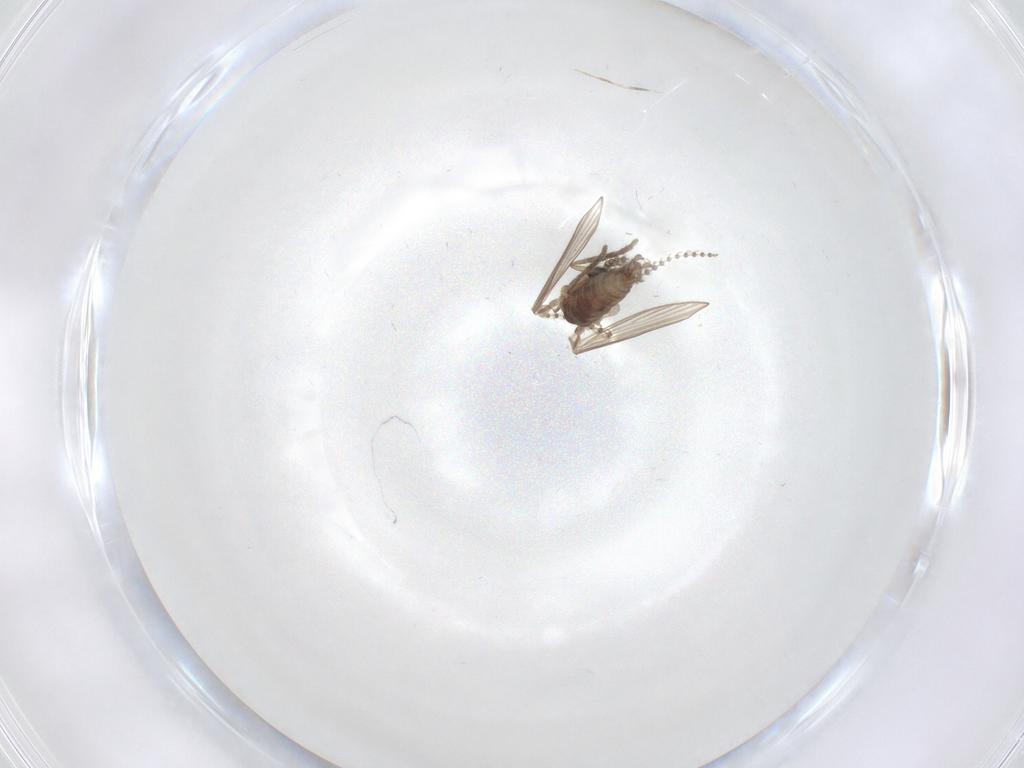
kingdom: Animalia
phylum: Arthropoda
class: Insecta
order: Diptera
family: Psychodidae
